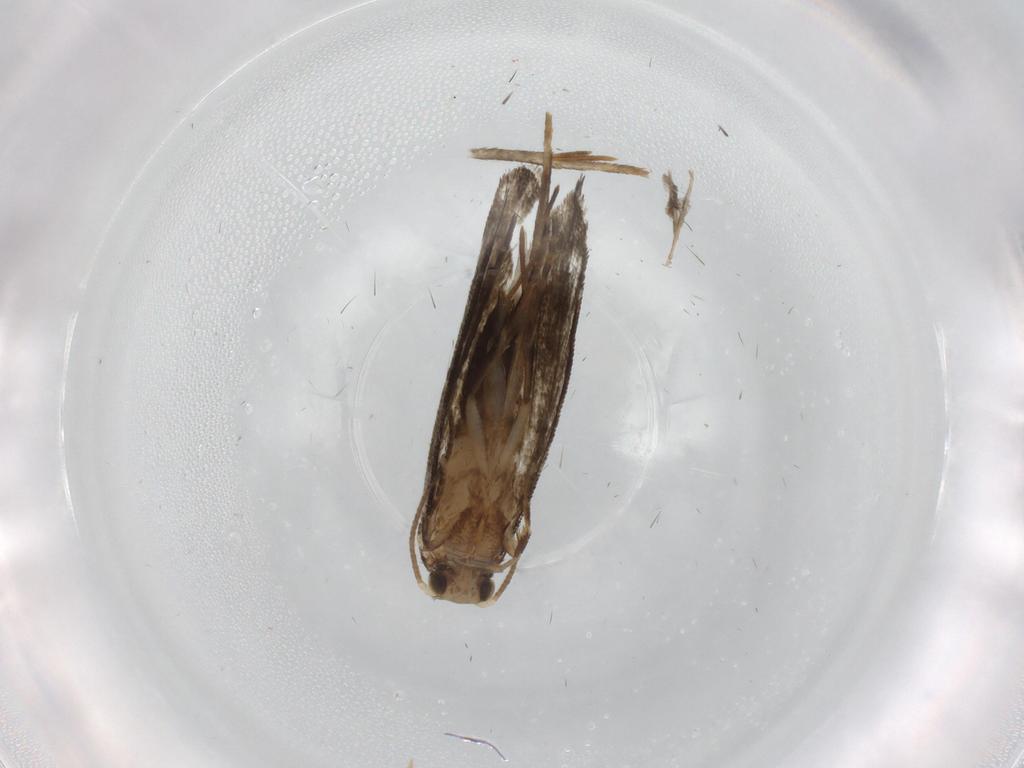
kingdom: Animalia
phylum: Arthropoda
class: Insecta
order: Lepidoptera
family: Tineidae
